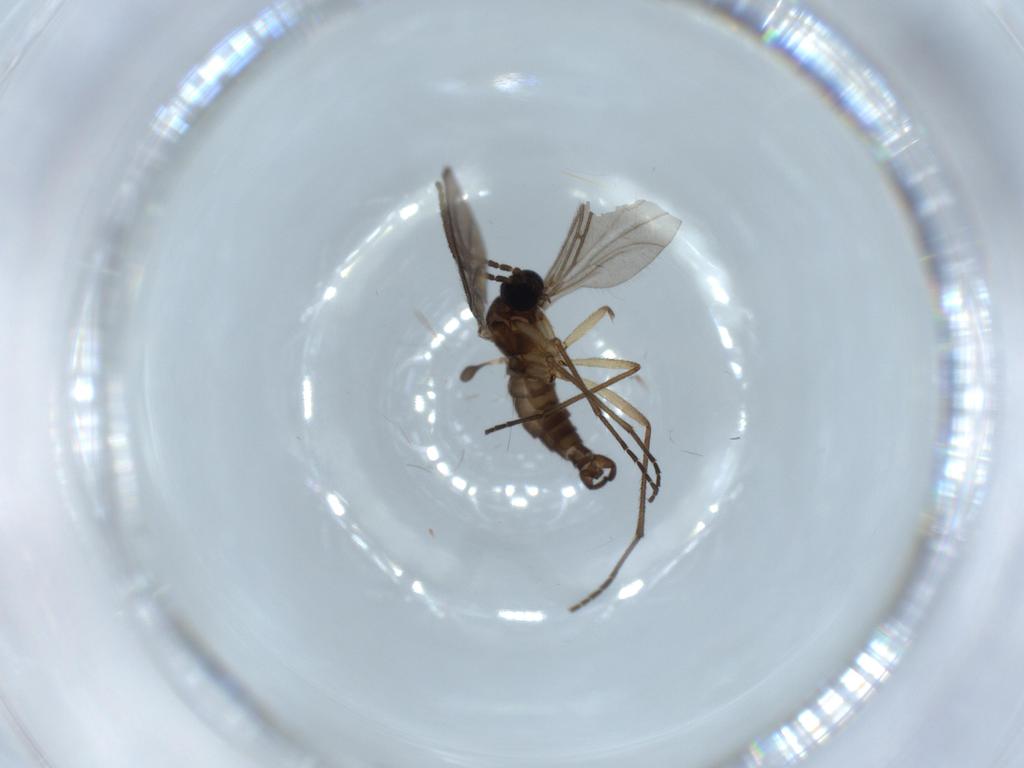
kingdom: Animalia
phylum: Arthropoda
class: Insecta
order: Diptera
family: Sciaridae
